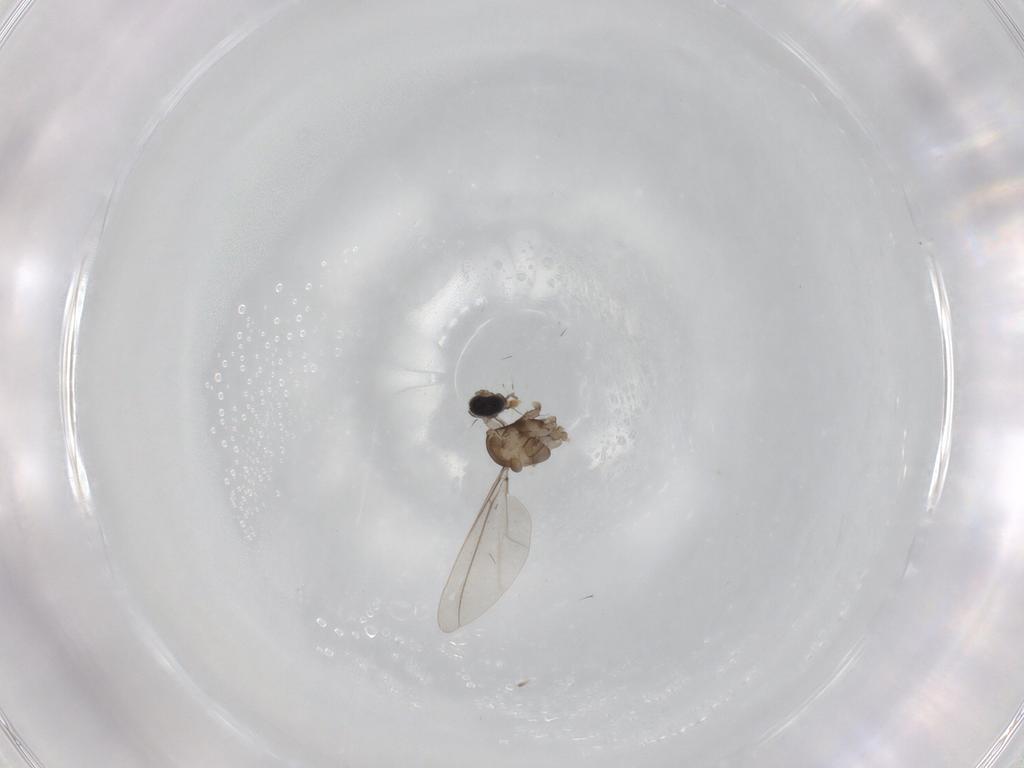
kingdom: Animalia
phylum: Arthropoda
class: Insecta
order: Diptera
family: Cecidomyiidae
